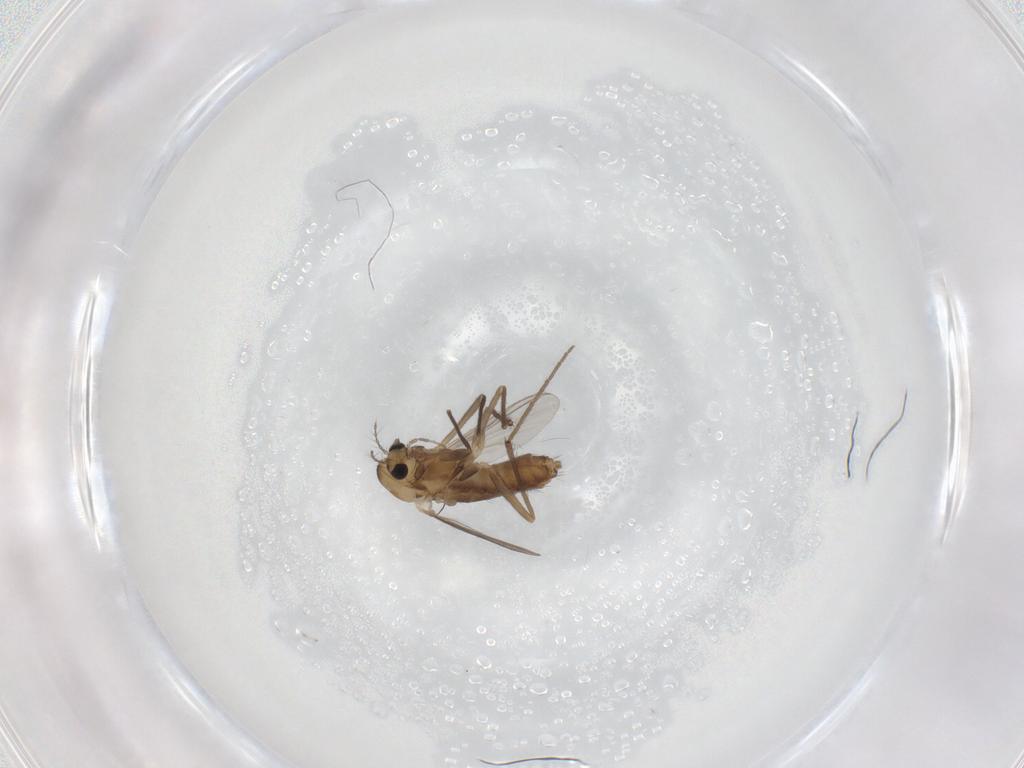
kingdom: Animalia
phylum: Arthropoda
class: Insecta
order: Diptera
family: Chironomidae
